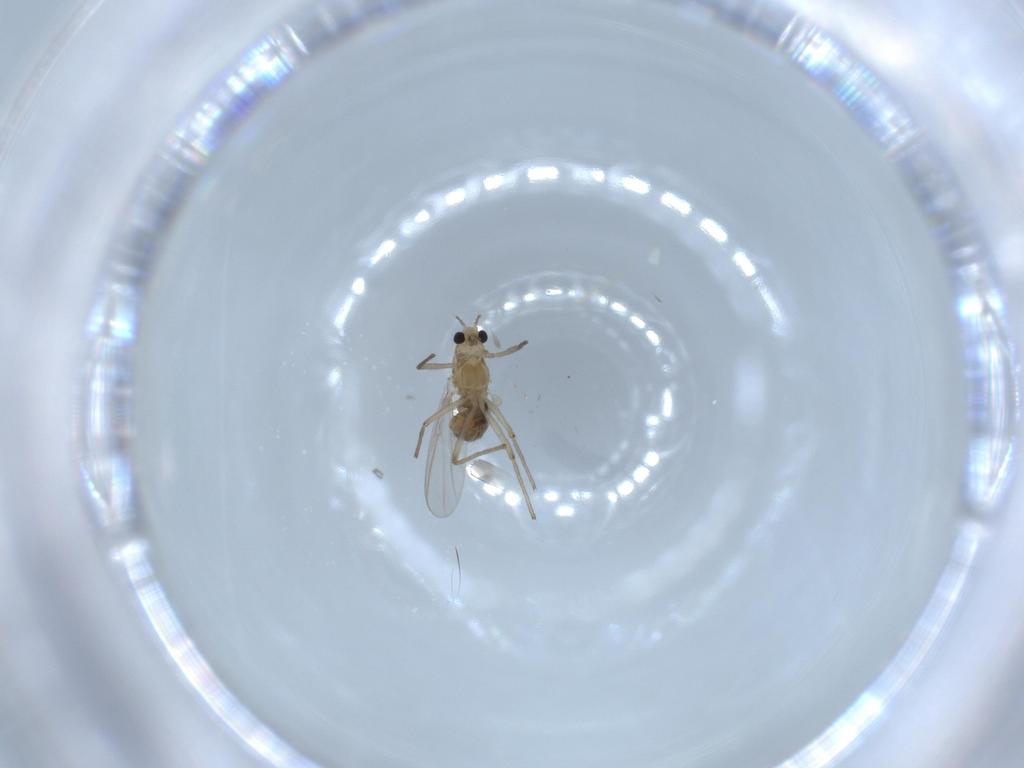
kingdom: Animalia
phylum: Arthropoda
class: Insecta
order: Diptera
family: Chironomidae
